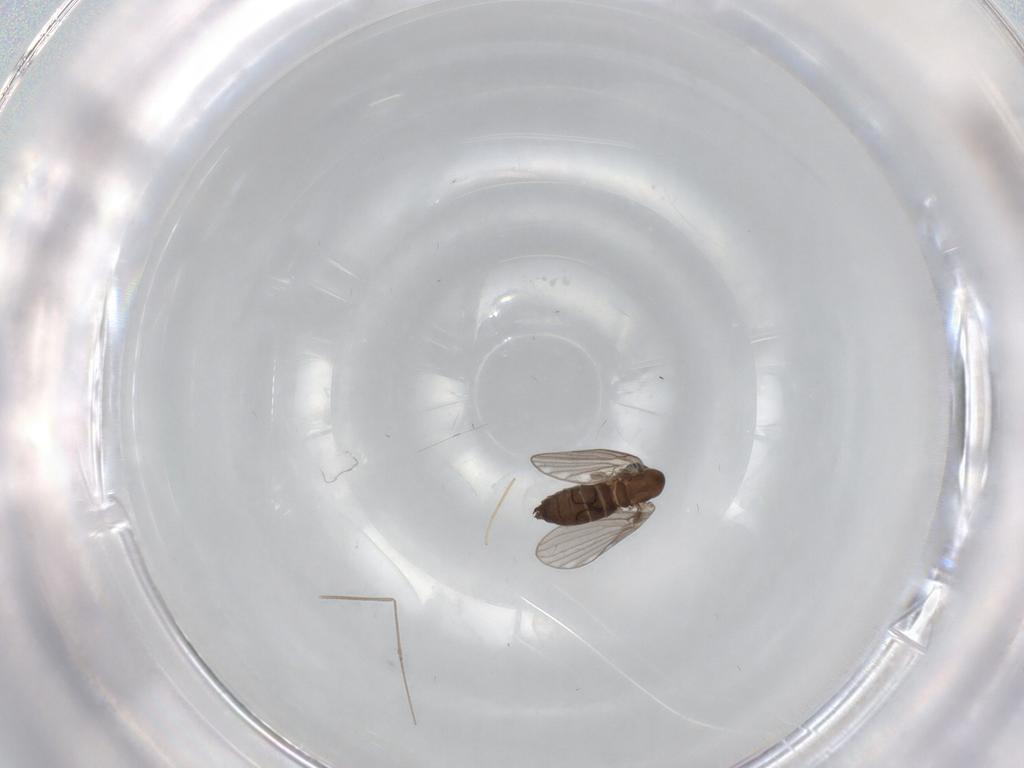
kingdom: Animalia
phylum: Arthropoda
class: Insecta
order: Diptera
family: Psychodidae
